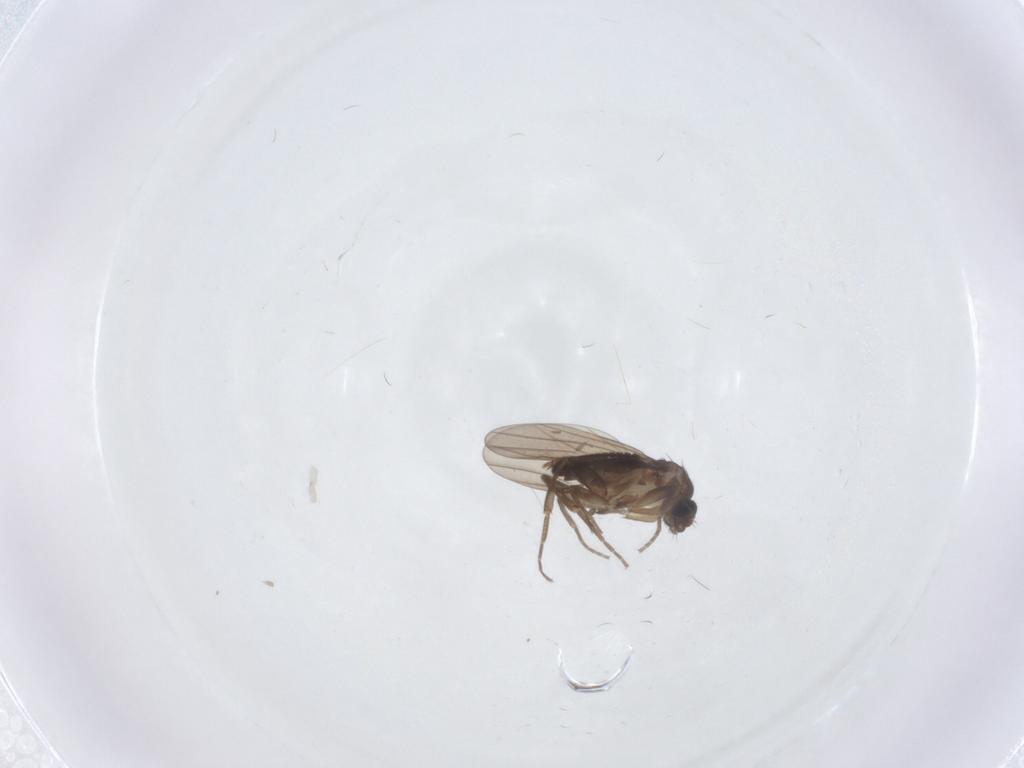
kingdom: Animalia
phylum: Arthropoda
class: Insecta
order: Diptera
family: Phoridae
